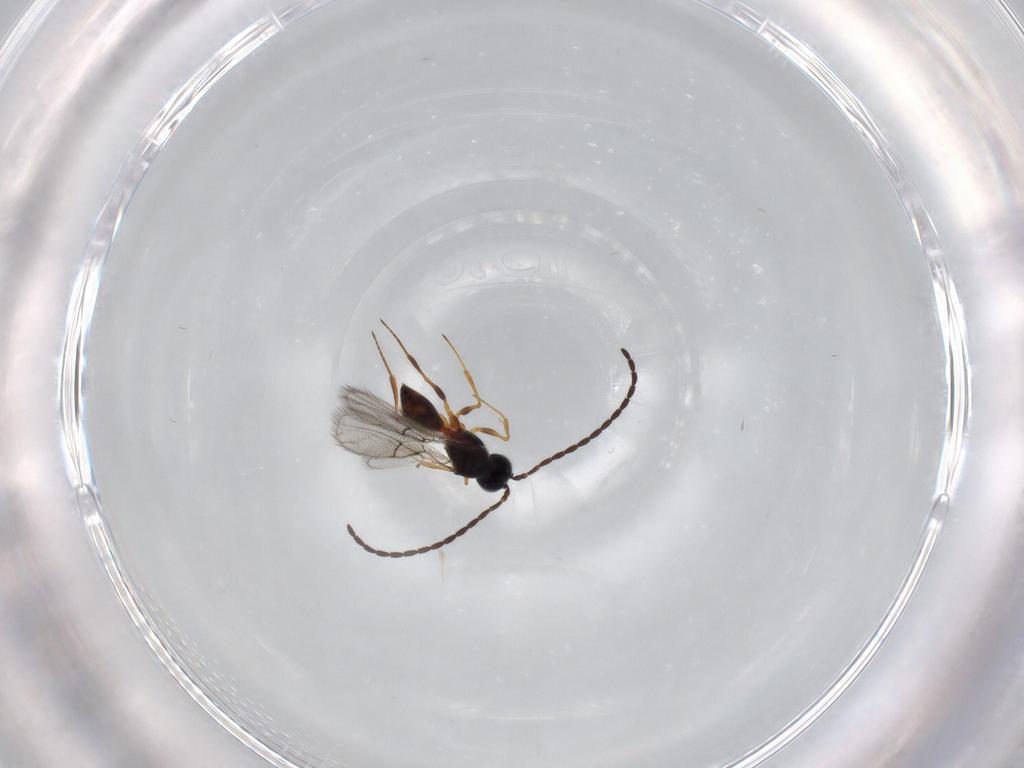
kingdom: Animalia
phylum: Arthropoda
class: Insecta
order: Hymenoptera
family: Figitidae
